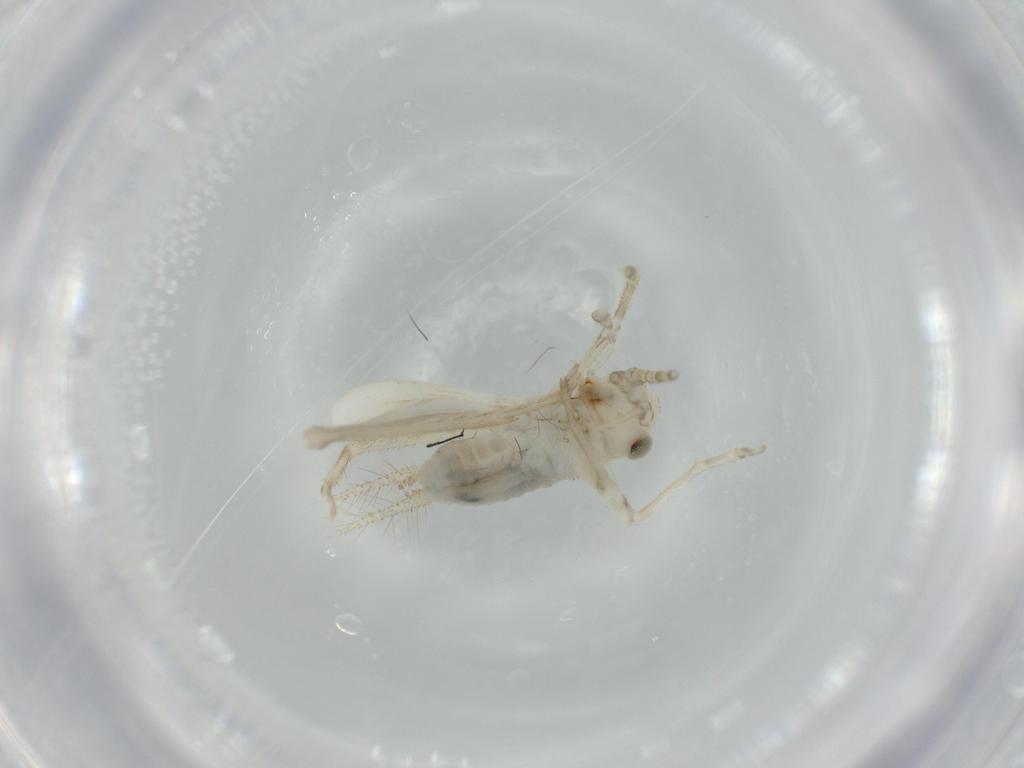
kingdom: Animalia
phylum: Arthropoda
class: Insecta
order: Orthoptera
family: Trigonidiidae
